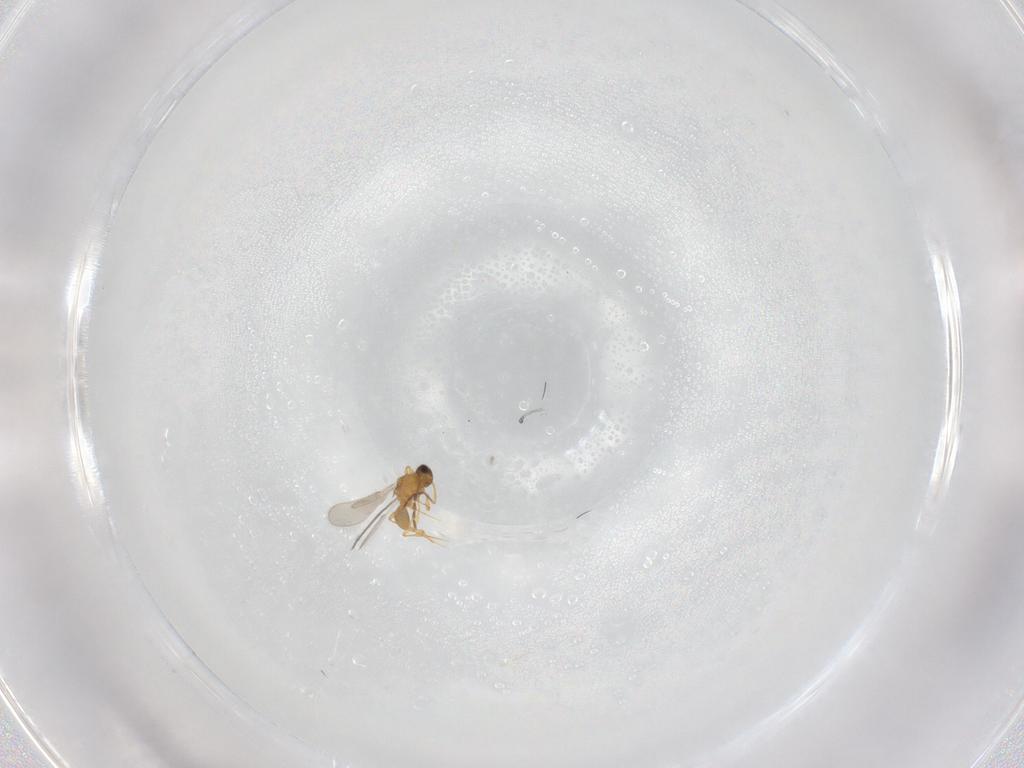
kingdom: Animalia
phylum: Arthropoda
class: Insecta
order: Hymenoptera
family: Platygastridae
